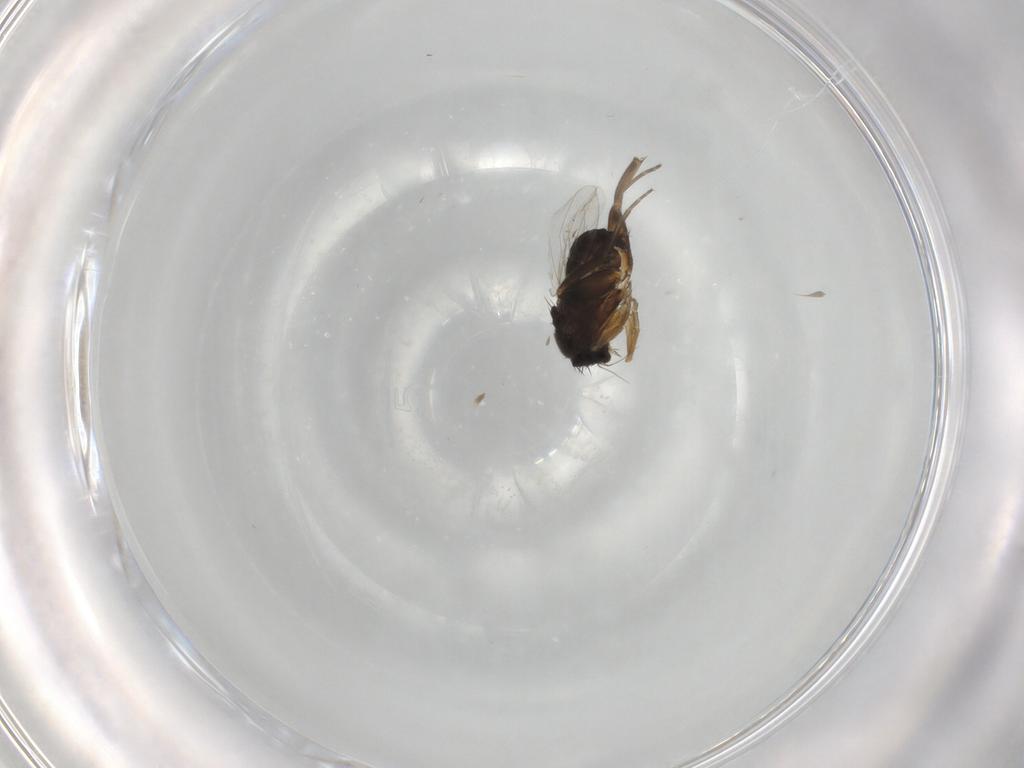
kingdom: Animalia
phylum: Arthropoda
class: Insecta
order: Diptera
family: Phoridae
